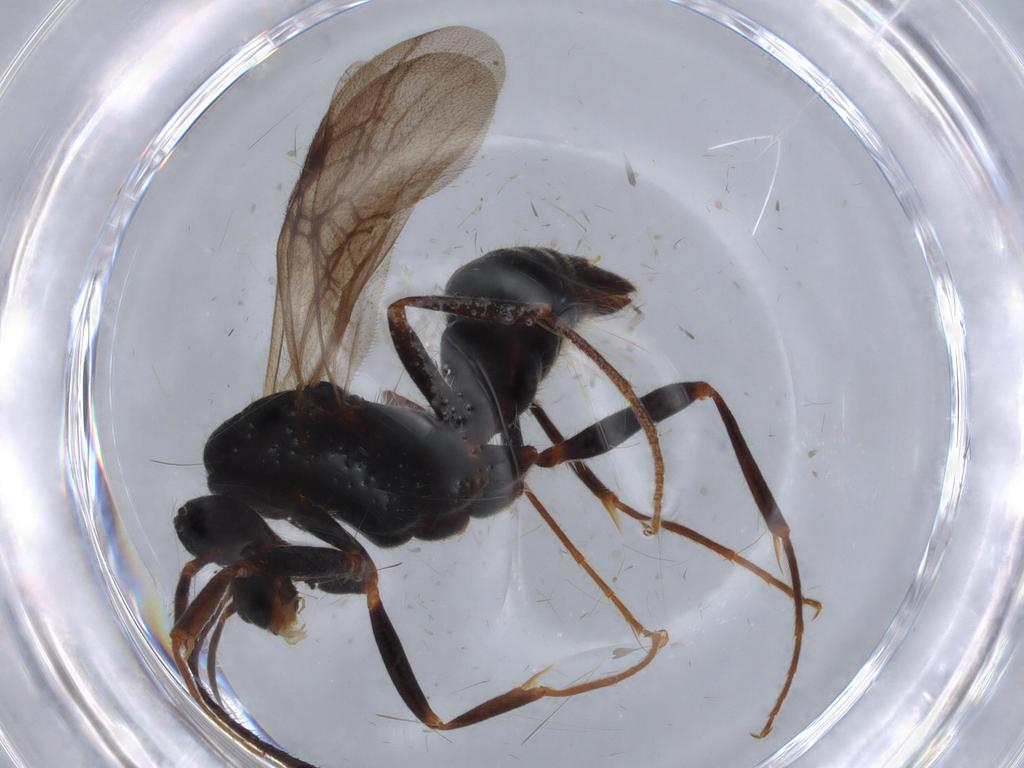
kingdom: Animalia
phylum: Arthropoda
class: Insecta
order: Hymenoptera
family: Formicidae
